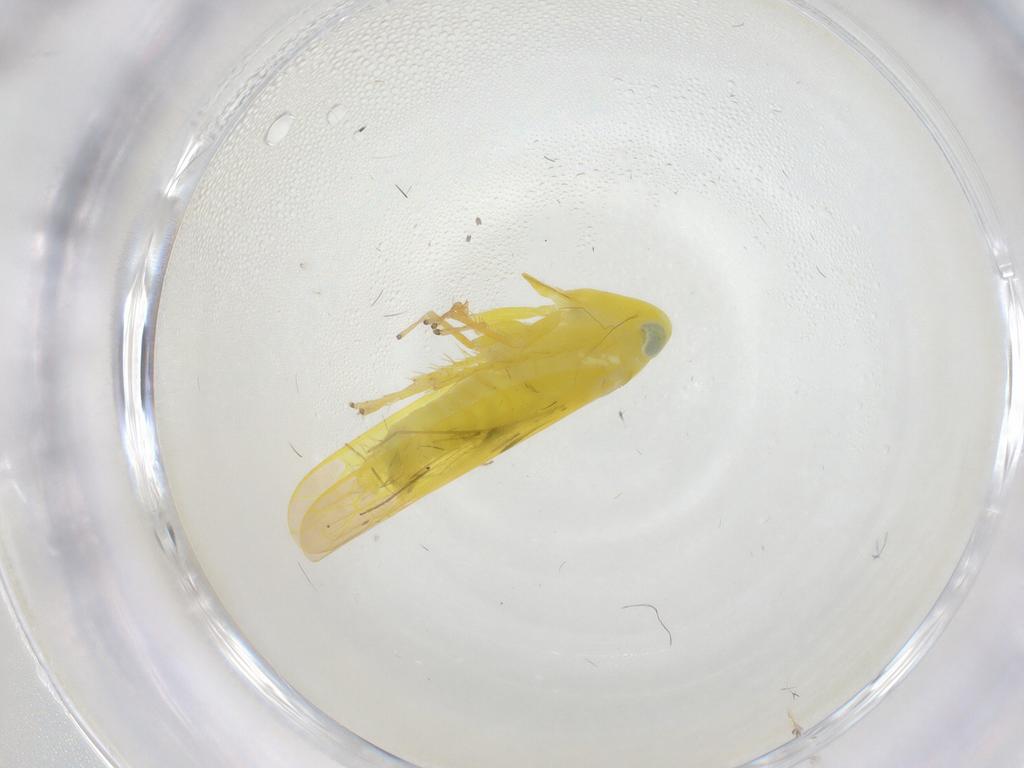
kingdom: Animalia
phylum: Arthropoda
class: Insecta
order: Hemiptera
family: Cicadellidae
